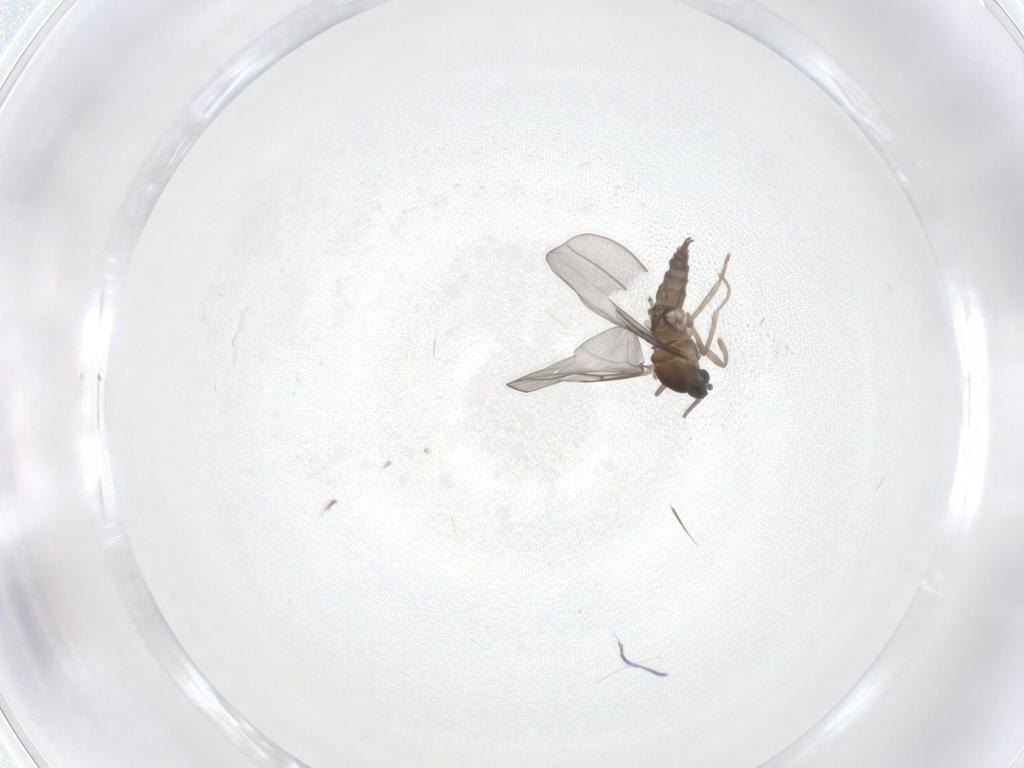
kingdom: Animalia
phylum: Arthropoda
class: Insecta
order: Diptera
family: Cecidomyiidae
